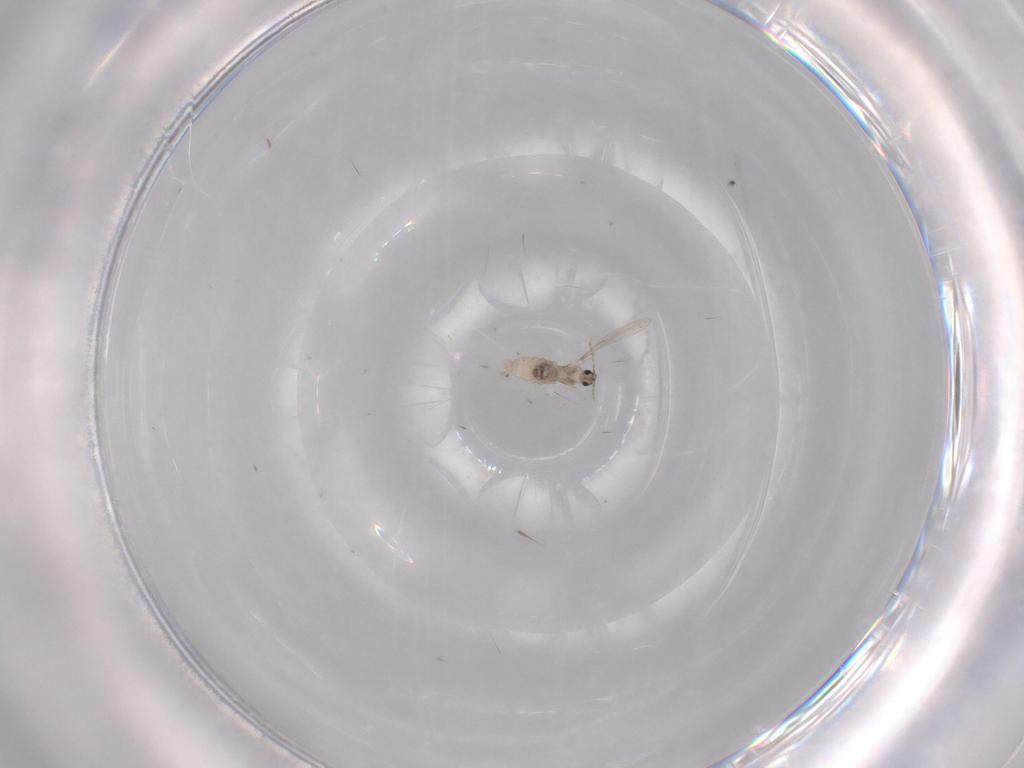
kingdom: Animalia
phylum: Arthropoda
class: Insecta
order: Diptera
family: Cecidomyiidae
